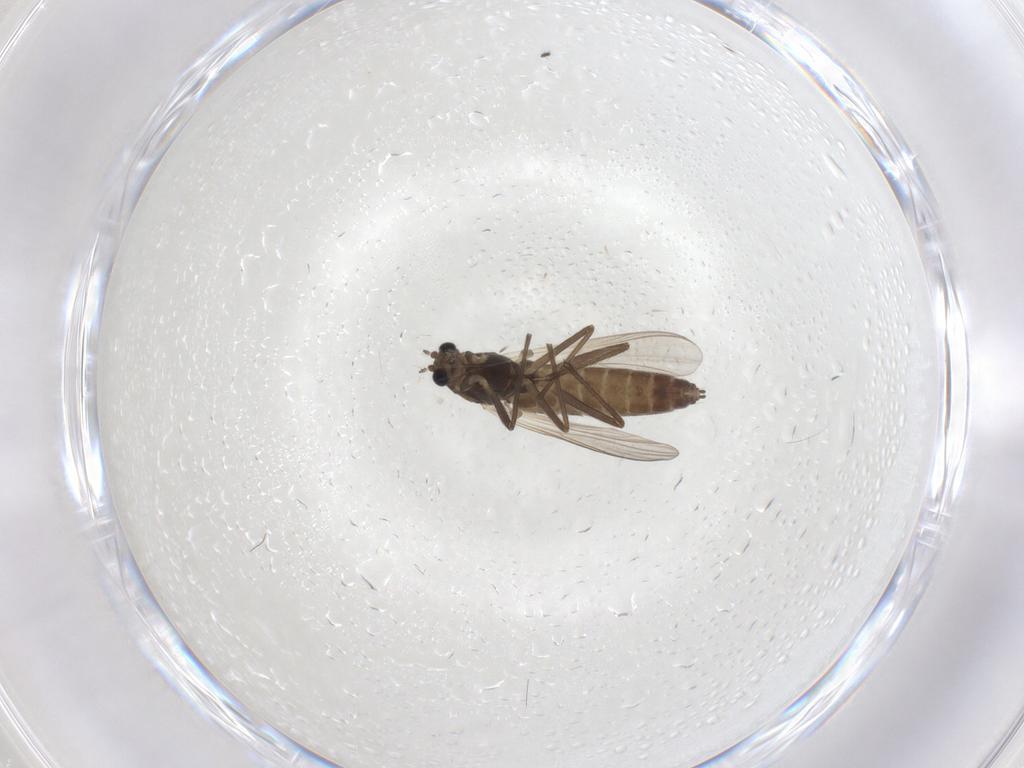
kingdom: Animalia
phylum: Arthropoda
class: Insecta
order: Diptera
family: Chironomidae
